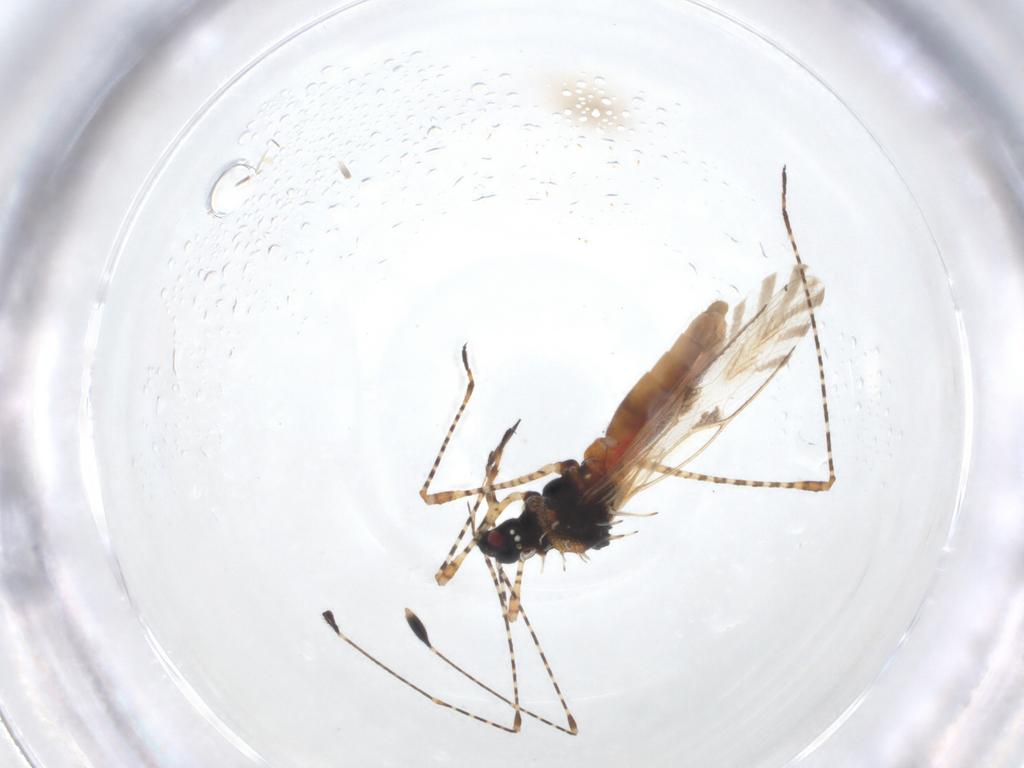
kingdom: Animalia
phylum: Arthropoda
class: Insecta
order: Hemiptera
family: Berytidae
